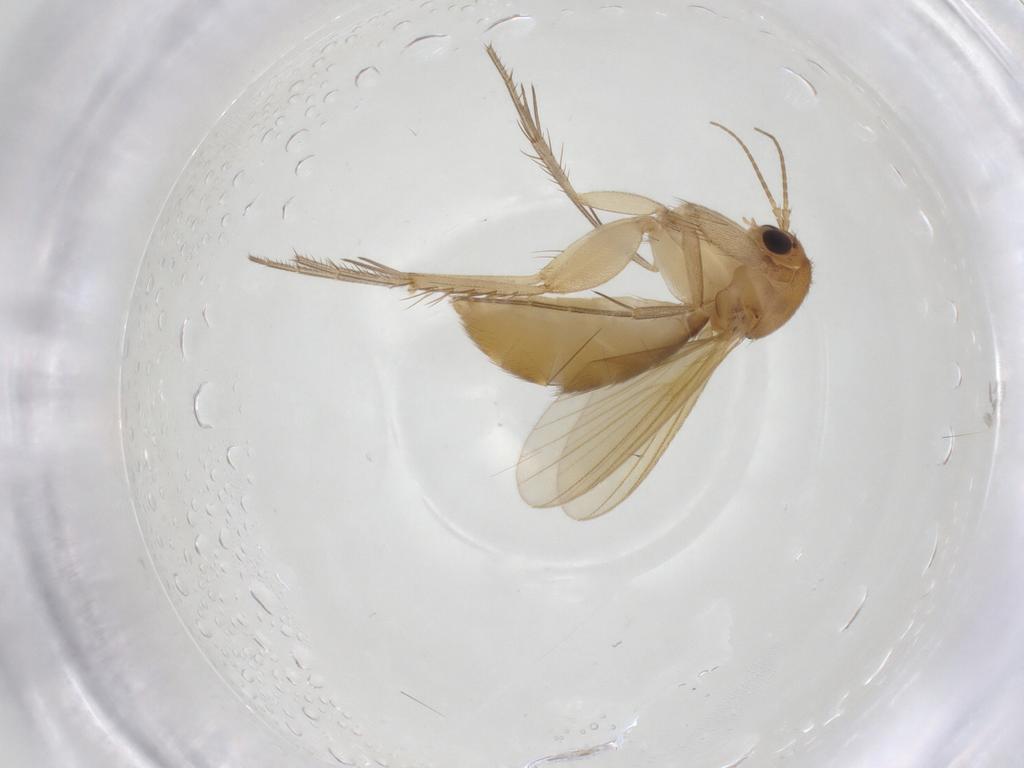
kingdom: Animalia
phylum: Arthropoda
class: Insecta
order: Diptera
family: Mycetophilidae
